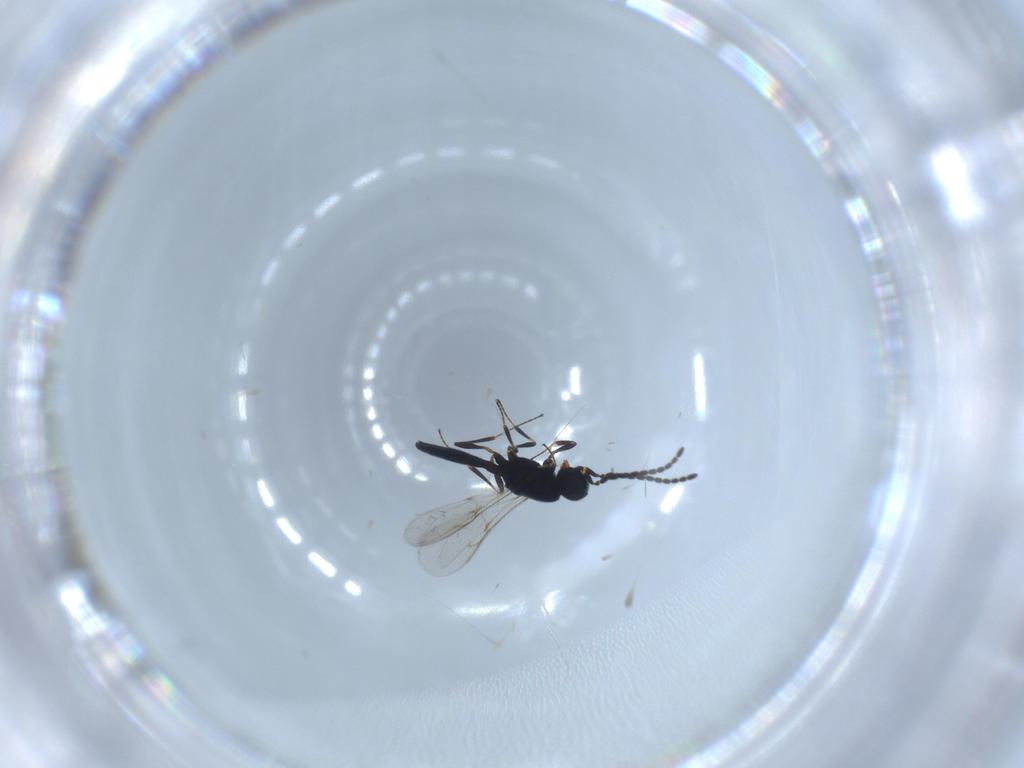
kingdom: Animalia
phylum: Arthropoda
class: Insecta
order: Hymenoptera
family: Scelionidae
